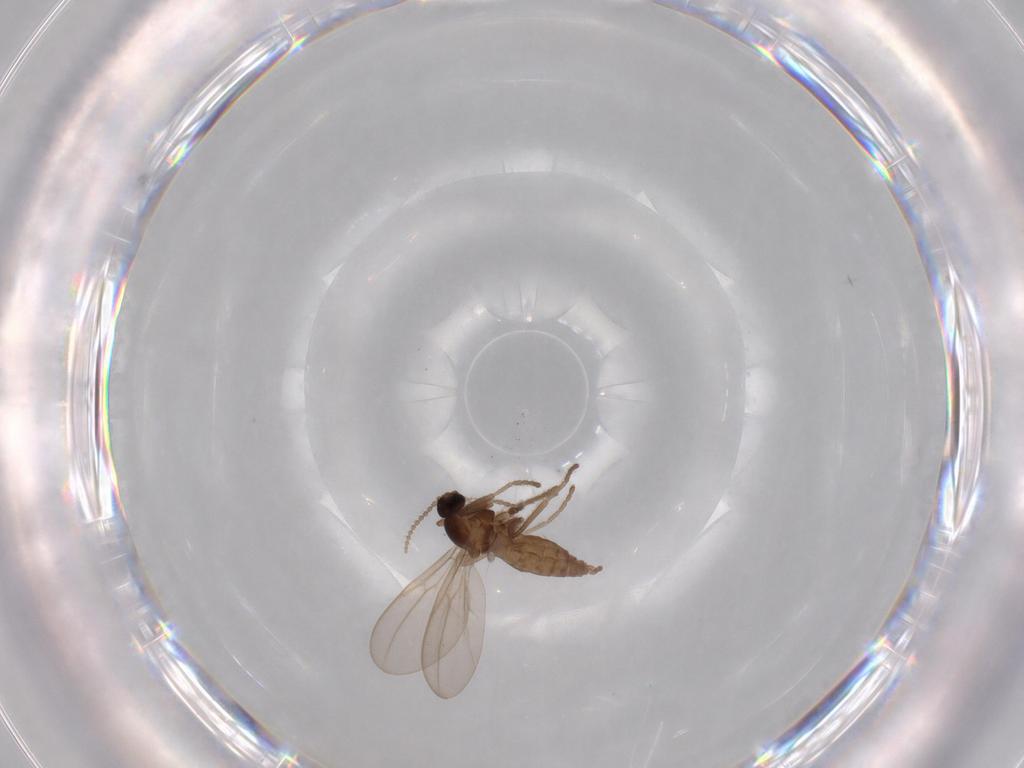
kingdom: Animalia
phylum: Arthropoda
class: Insecta
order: Diptera
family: Cecidomyiidae
